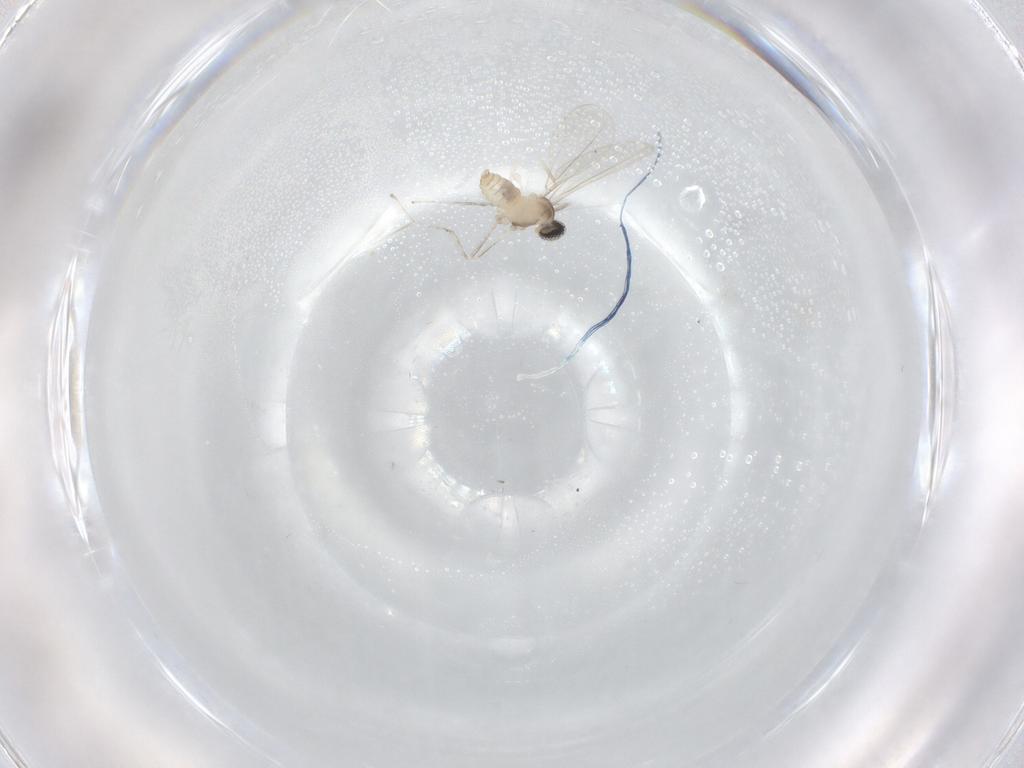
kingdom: Animalia
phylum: Arthropoda
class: Insecta
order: Diptera
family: Cecidomyiidae
